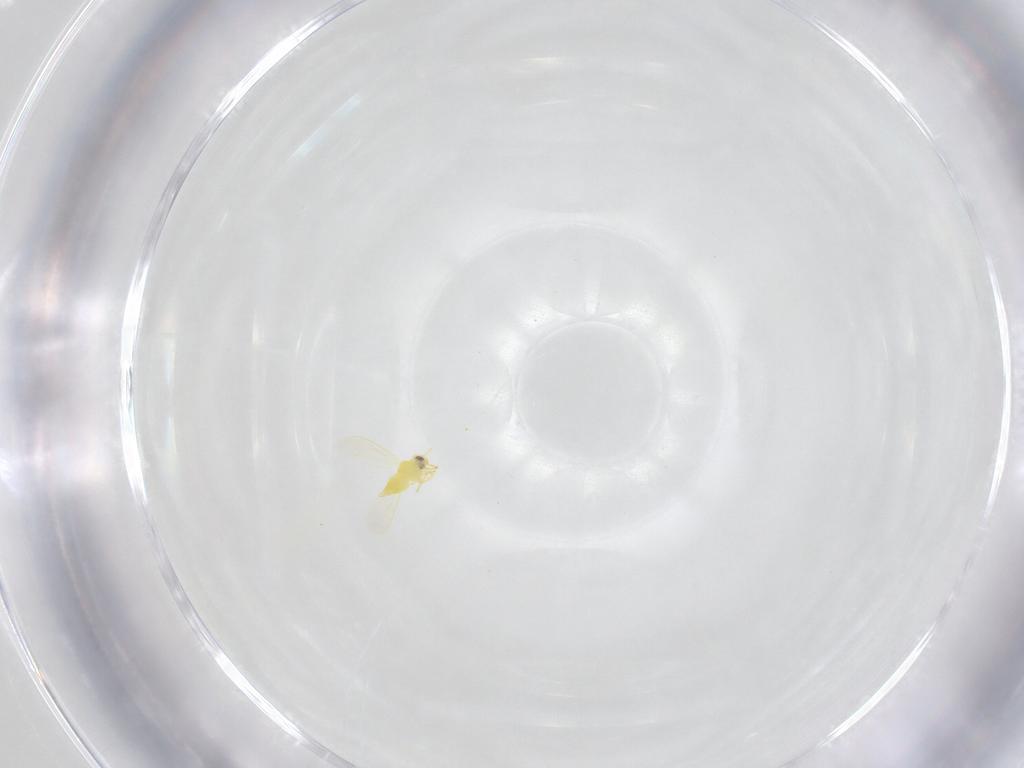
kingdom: Animalia
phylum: Arthropoda
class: Insecta
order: Hemiptera
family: Aleyrodidae
